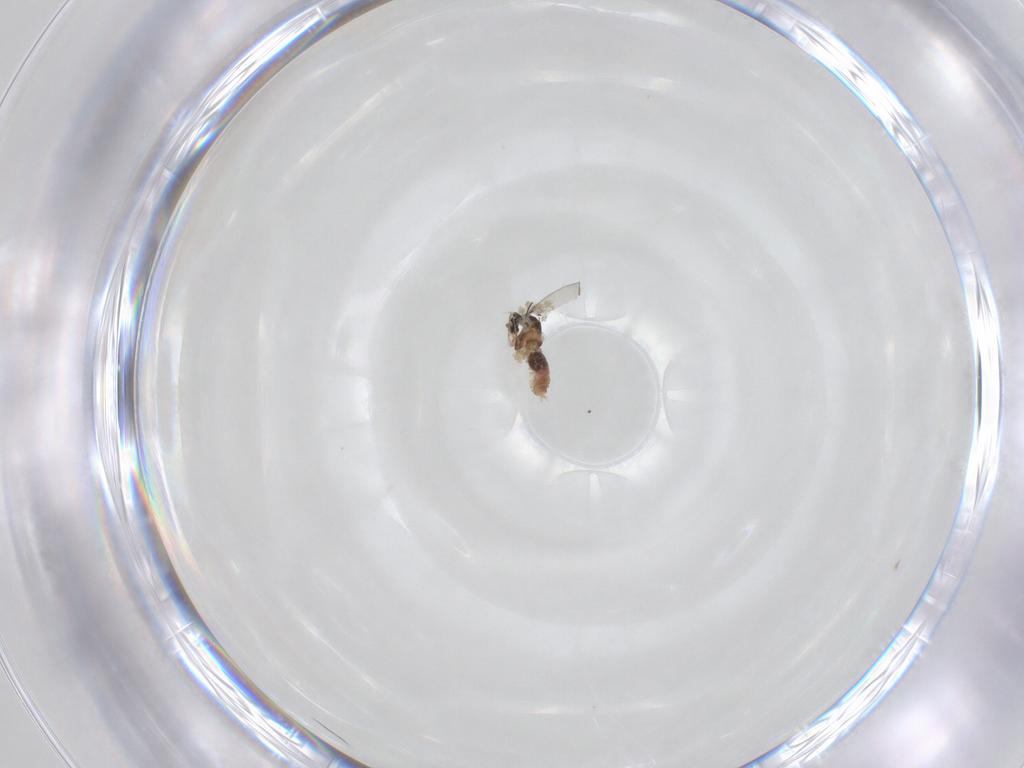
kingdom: Animalia
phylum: Arthropoda
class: Insecta
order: Diptera
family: Cecidomyiidae
